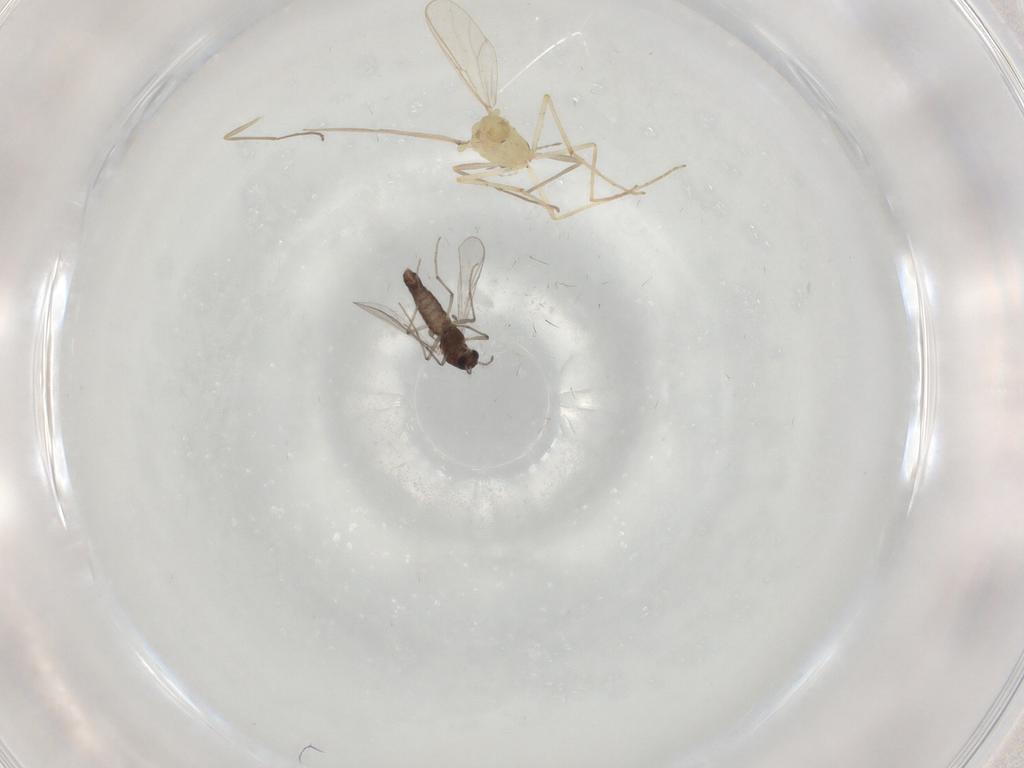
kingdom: Animalia
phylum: Arthropoda
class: Insecta
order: Diptera
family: Chironomidae
